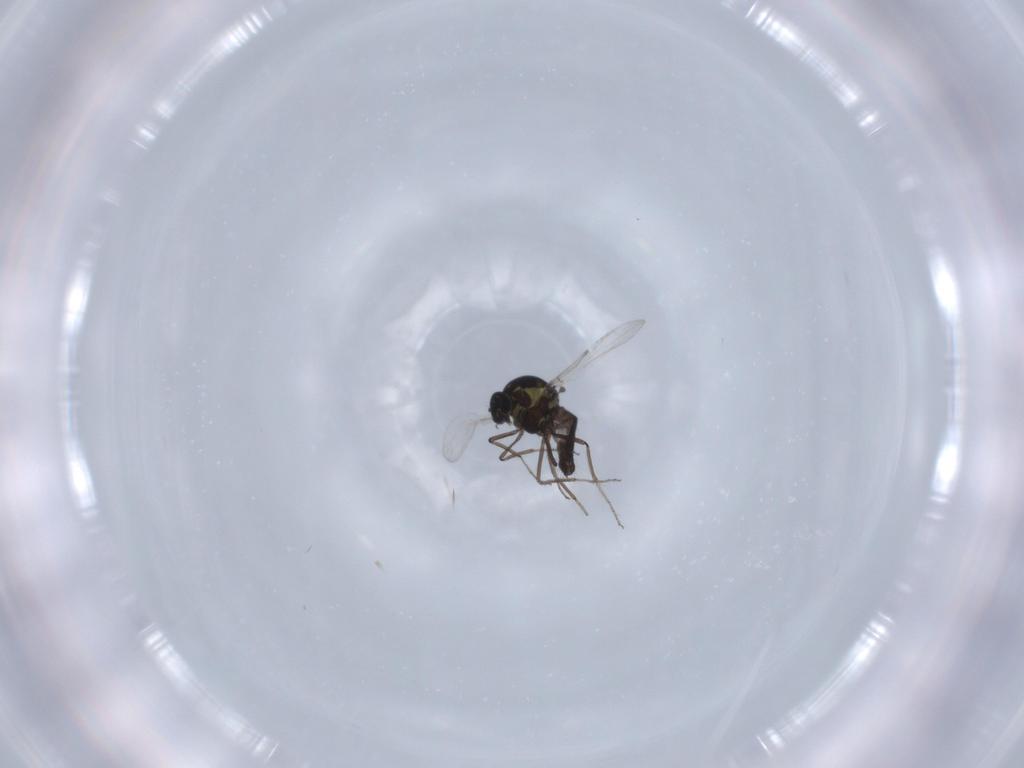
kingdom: Animalia
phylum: Arthropoda
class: Insecta
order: Diptera
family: Ceratopogonidae
